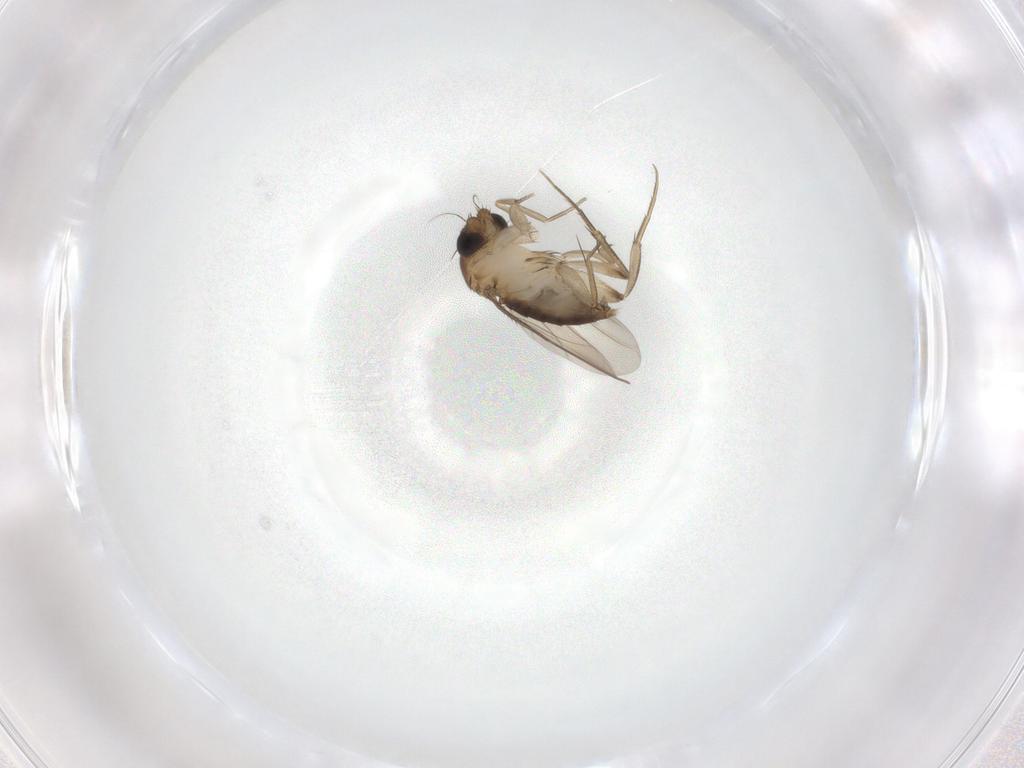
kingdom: Animalia
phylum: Arthropoda
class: Insecta
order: Diptera
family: Phoridae
